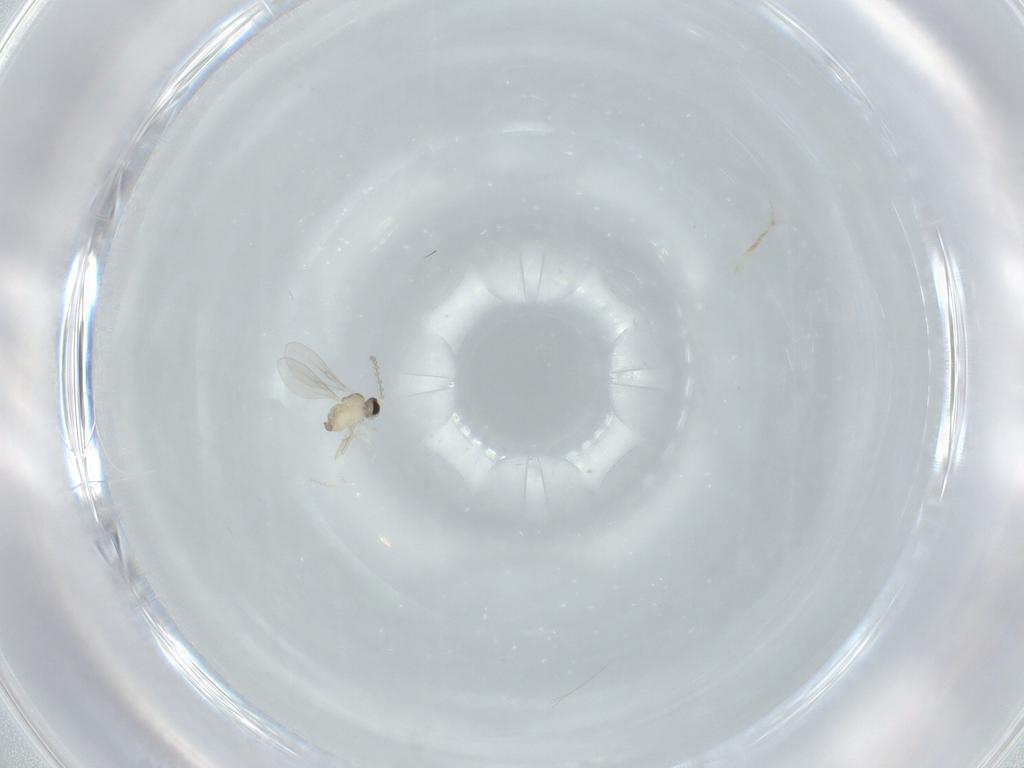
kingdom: Animalia
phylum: Arthropoda
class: Insecta
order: Diptera
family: Cecidomyiidae
